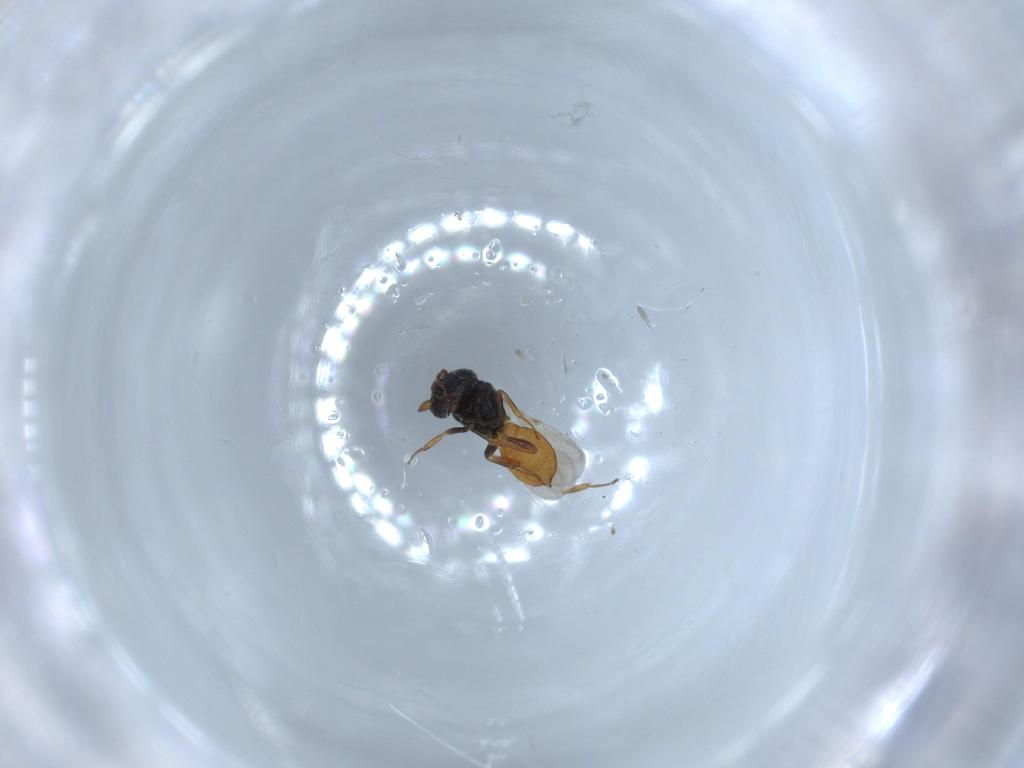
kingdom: Animalia
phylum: Arthropoda
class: Insecta
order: Hymenoptera
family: Scelionidae
